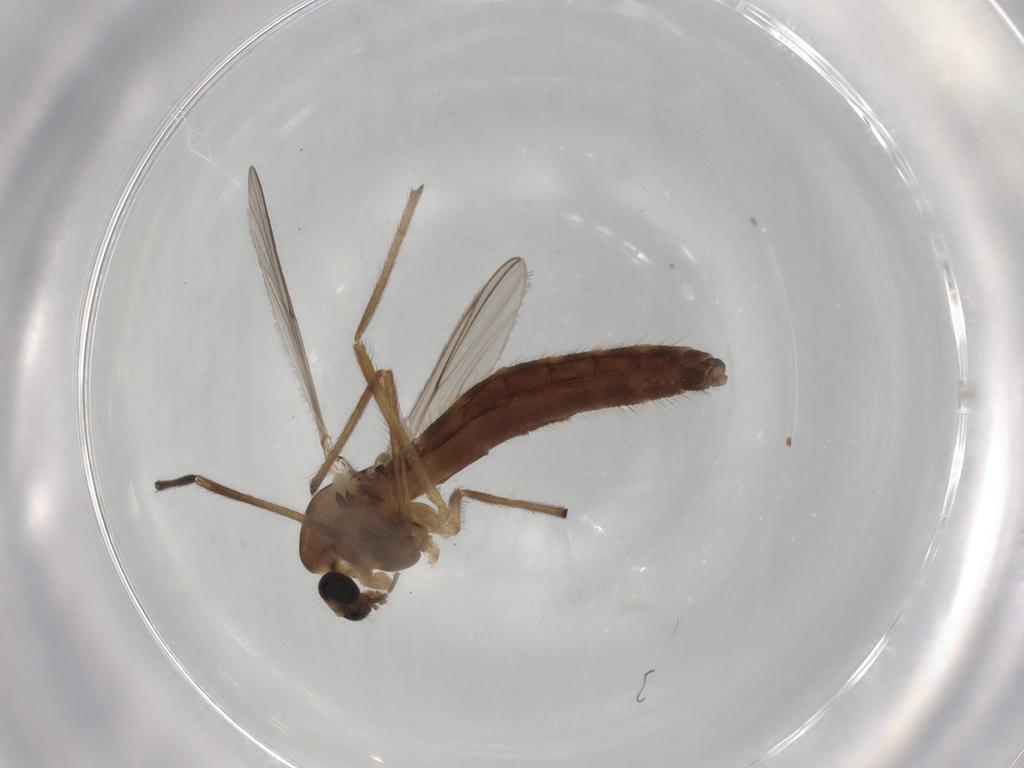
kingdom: Animalia
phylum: Arthropoda
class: Insecta
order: Diptera
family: Chironomidae
